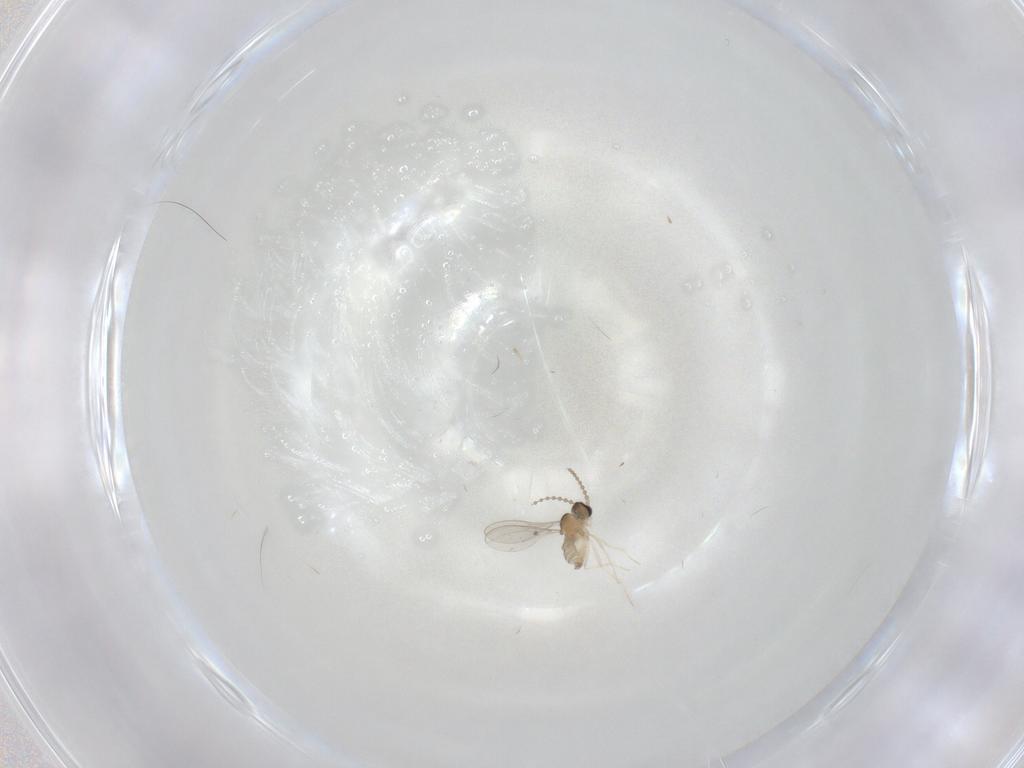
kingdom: Animalia
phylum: Arthropoda
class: Insecta
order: Diptera
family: Cecidomyiidae
